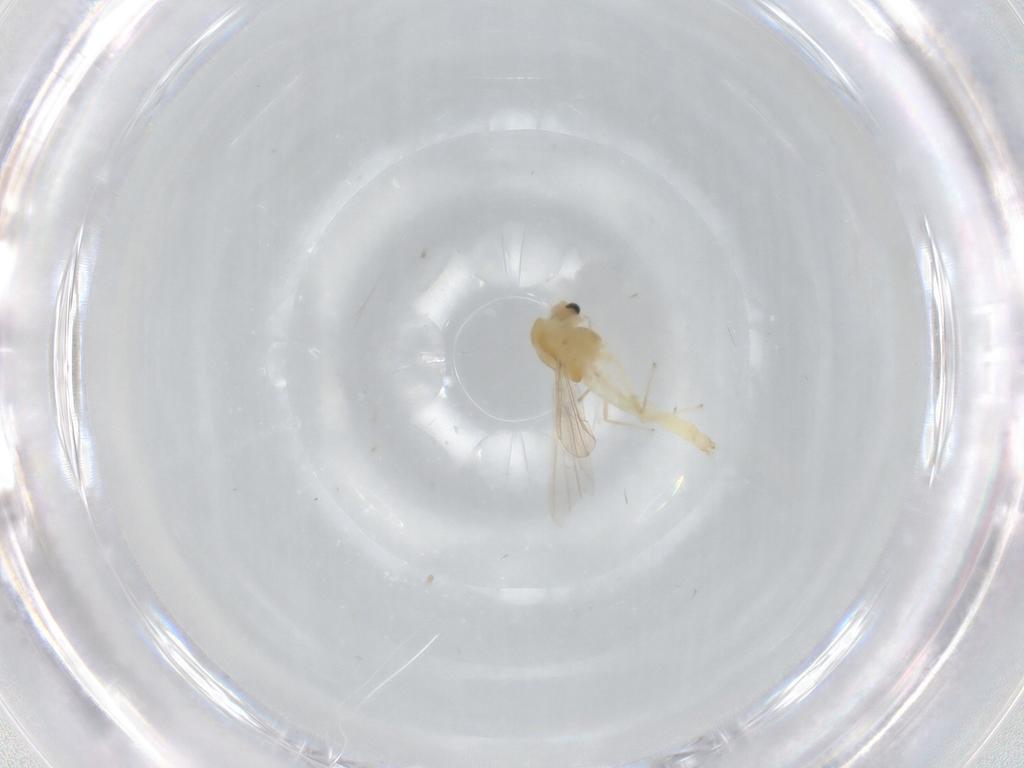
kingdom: Animalia
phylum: Arthropoda
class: Insecta
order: Diptera
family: Chironomidae
